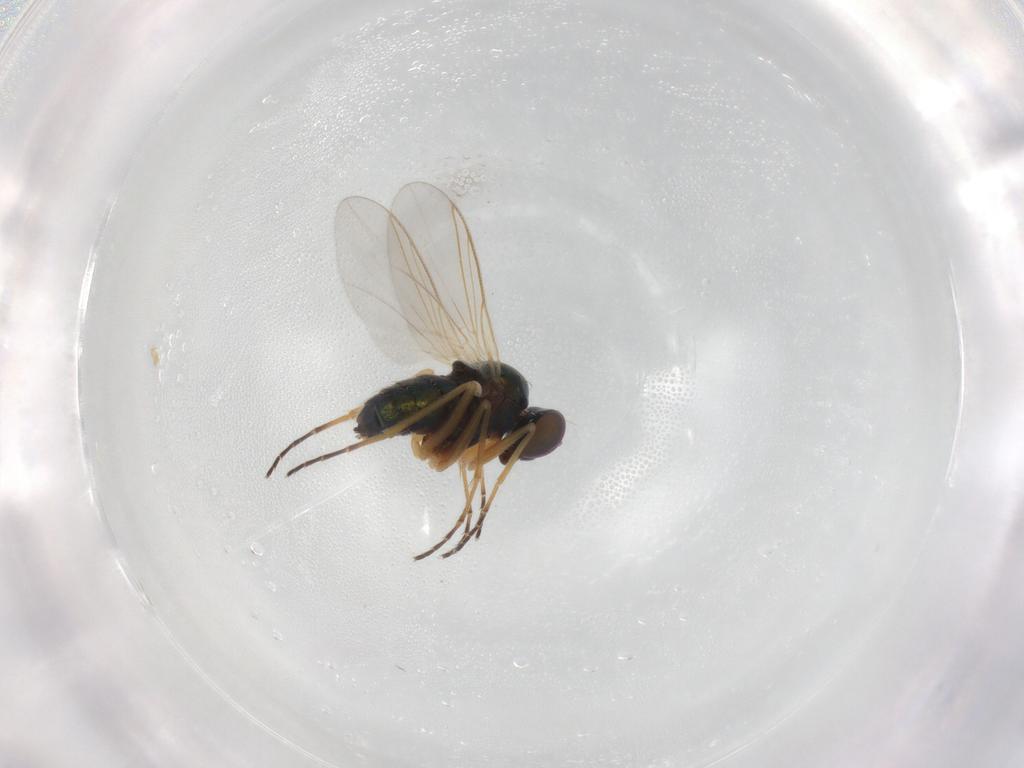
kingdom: Animalia
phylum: Arthropoda
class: Insecta
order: Diptera
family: Dolichopodidae
